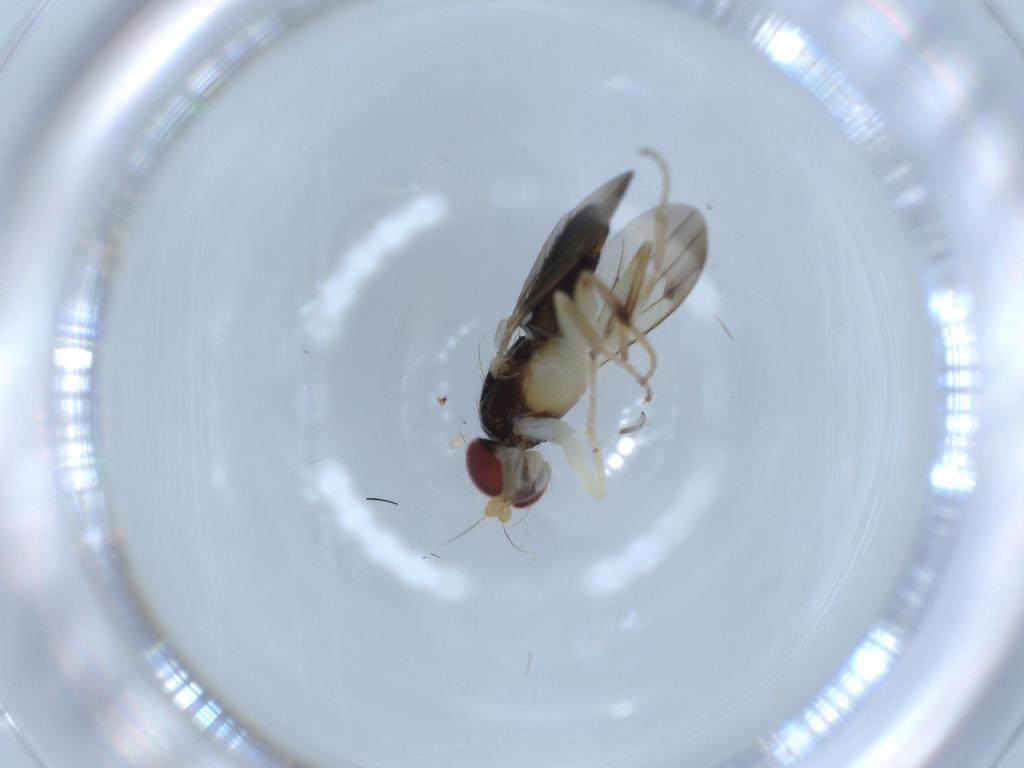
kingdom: Animalia
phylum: Arthropoda
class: Insecta
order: Diptera
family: Clusiidae
